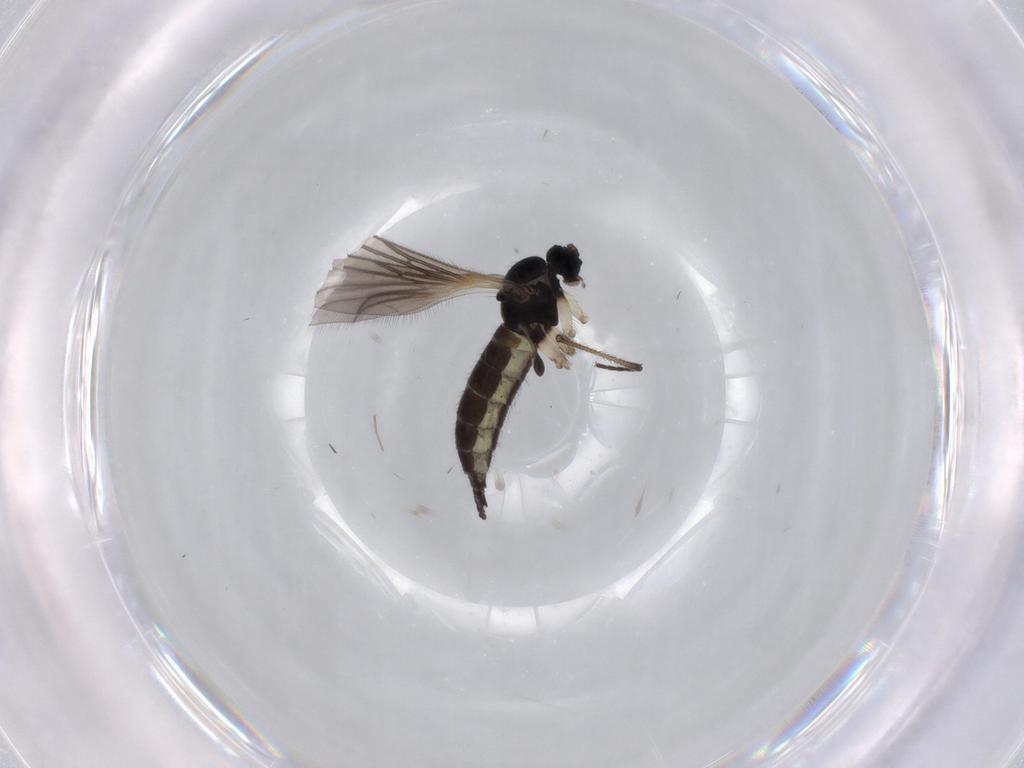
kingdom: Animalia
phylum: Arthropoda
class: Insecta
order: Diptera
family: Sciaridae
